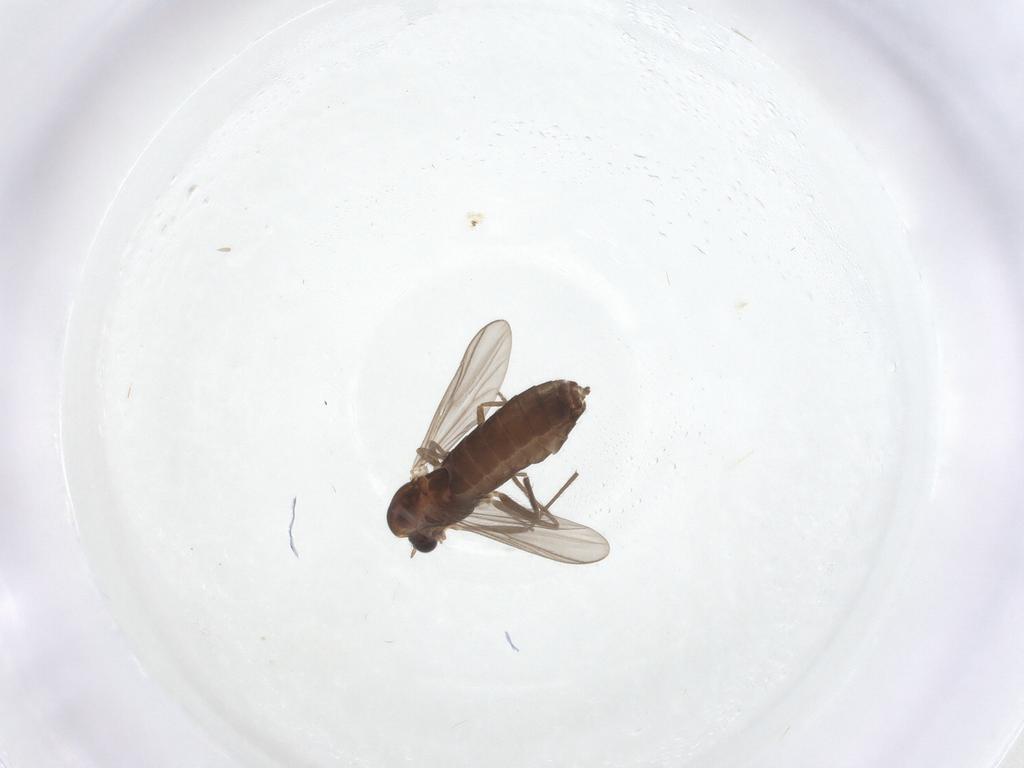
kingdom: Animalia
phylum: Arthropoda
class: Insecta
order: Diptera
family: Chironomidae
